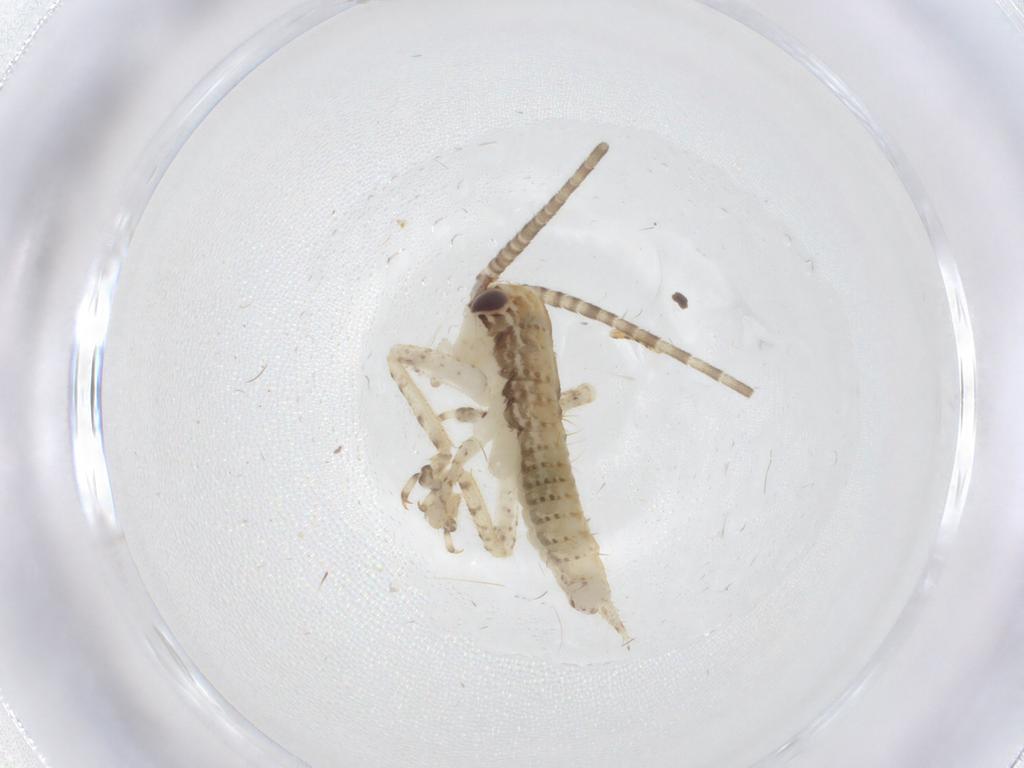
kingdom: Animalia
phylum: Arthropoda
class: Insecta
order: Orthoptera
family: Gryllidae
